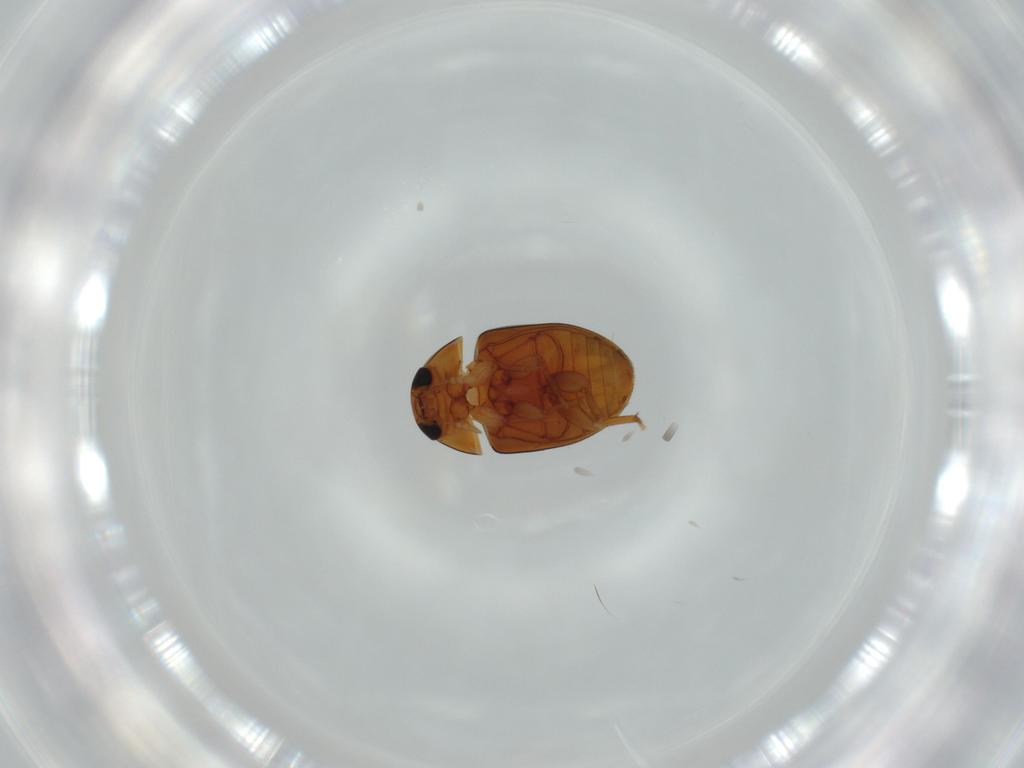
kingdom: Animalia
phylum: Arthropoda
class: Insecta
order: Coleoptera
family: Phalacridae
